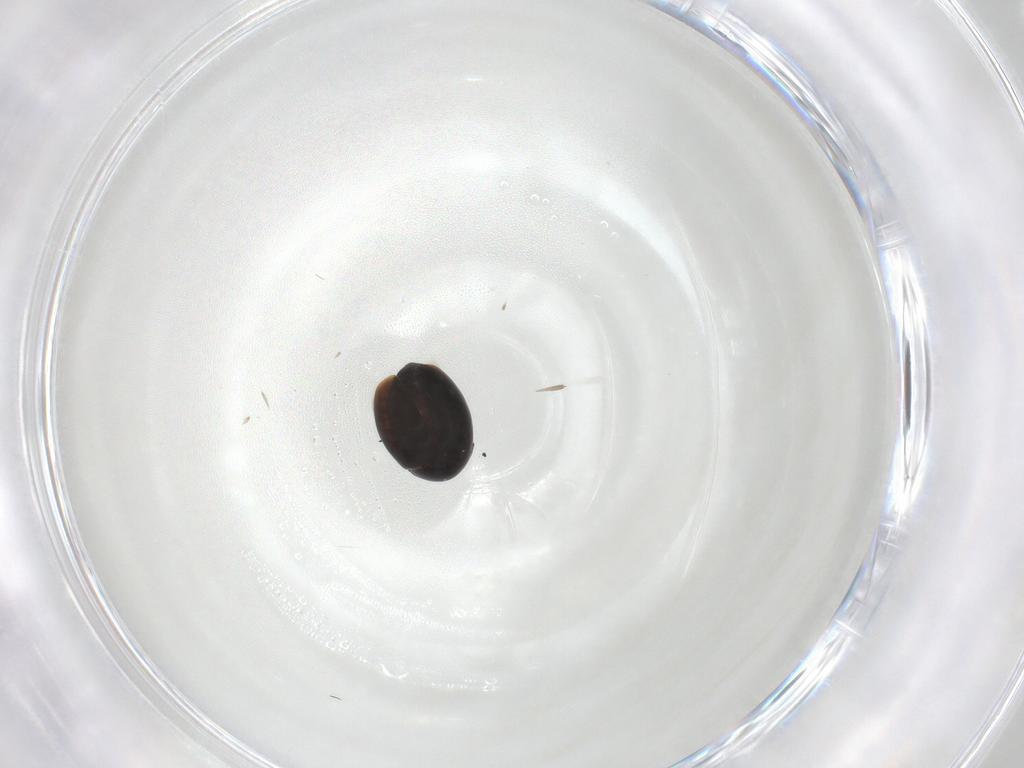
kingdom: Animalia
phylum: Arthropoda
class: Insecta
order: Coleoptera
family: Corylophidae
